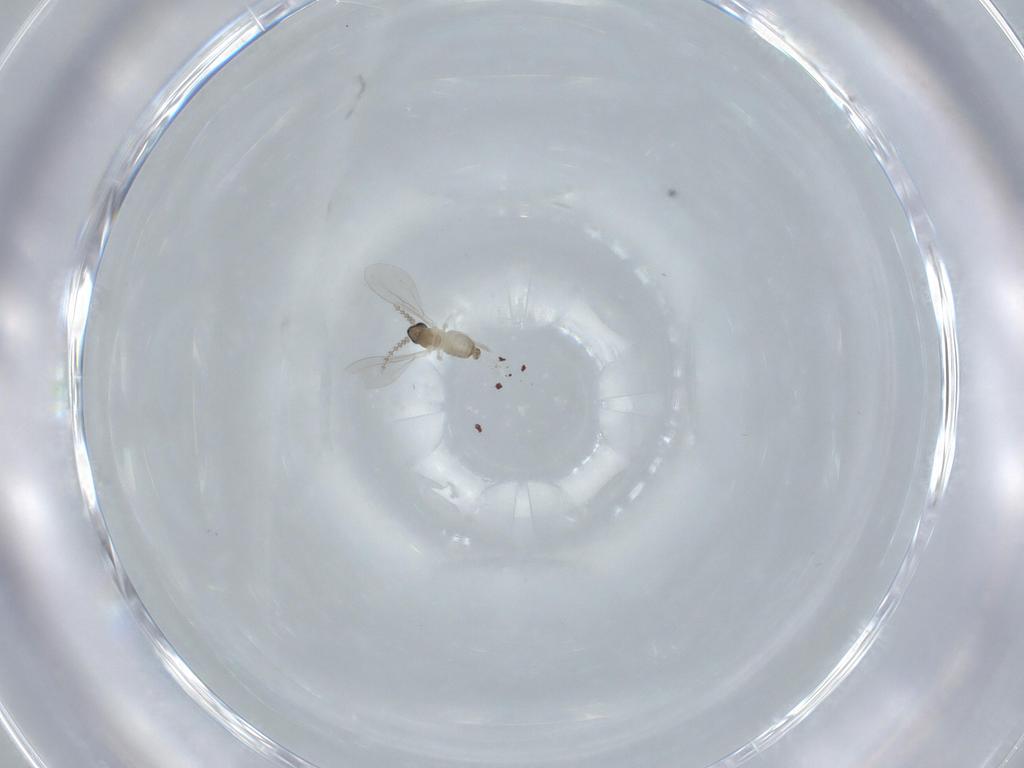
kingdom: Animalia
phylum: Arthropoda
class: Insecta
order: Diptera
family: Cecidomyiidae
